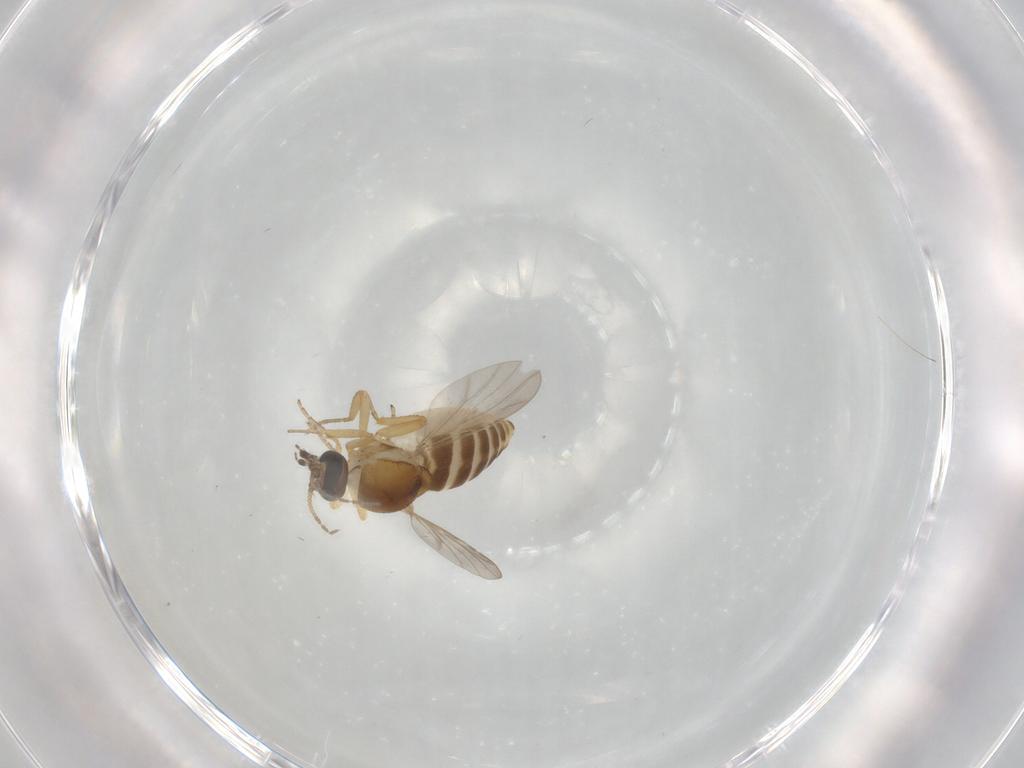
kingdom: Animalia
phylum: Arthropoda
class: Insecta
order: Diptera
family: Ceratopogonidae
